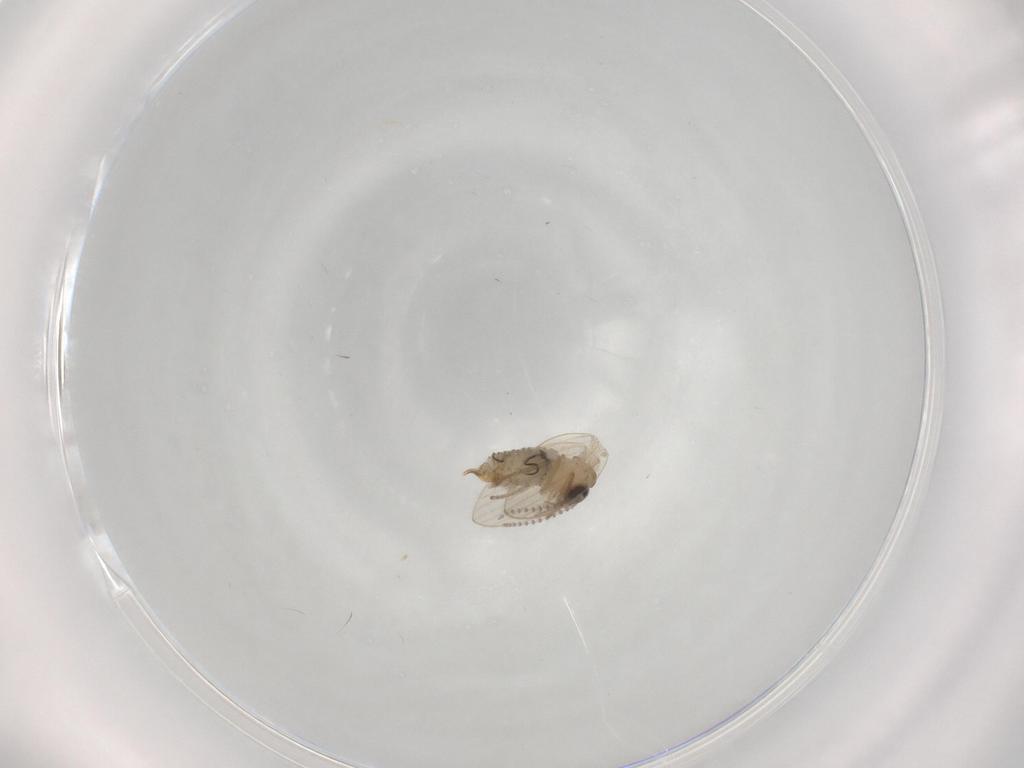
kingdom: Animalia
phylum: Arthropoda
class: Insecta
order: Diptera
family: Psychodidae
